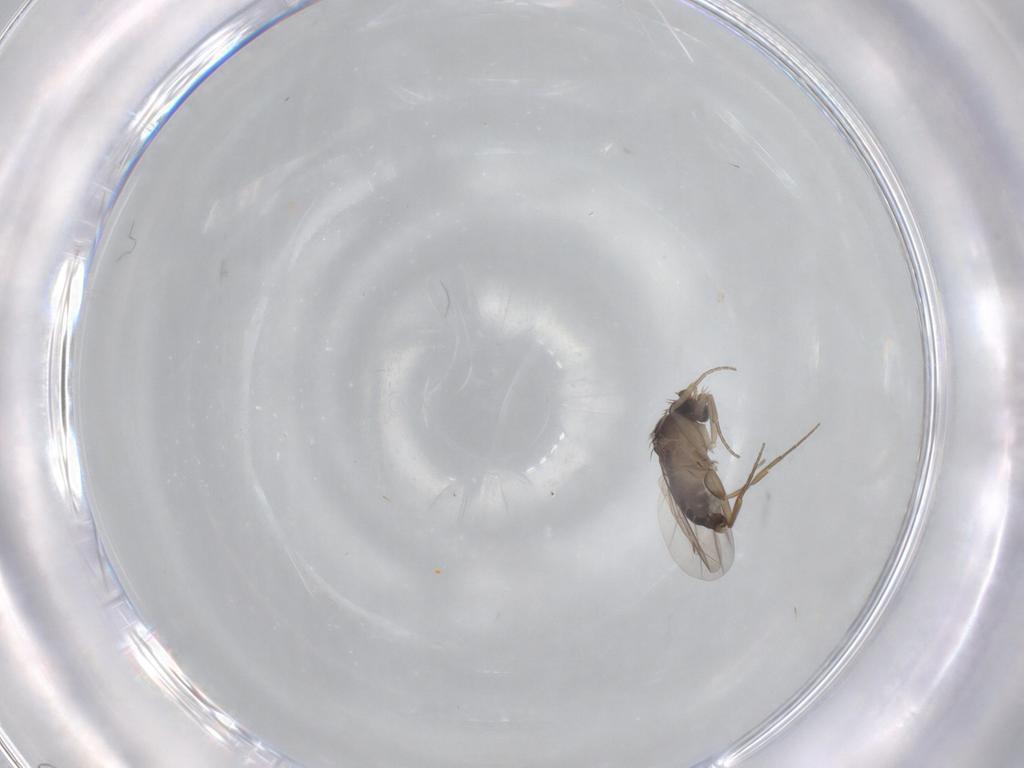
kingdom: Animalia
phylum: Arthropoda
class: Insecta
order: Diptera
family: Phoridae
